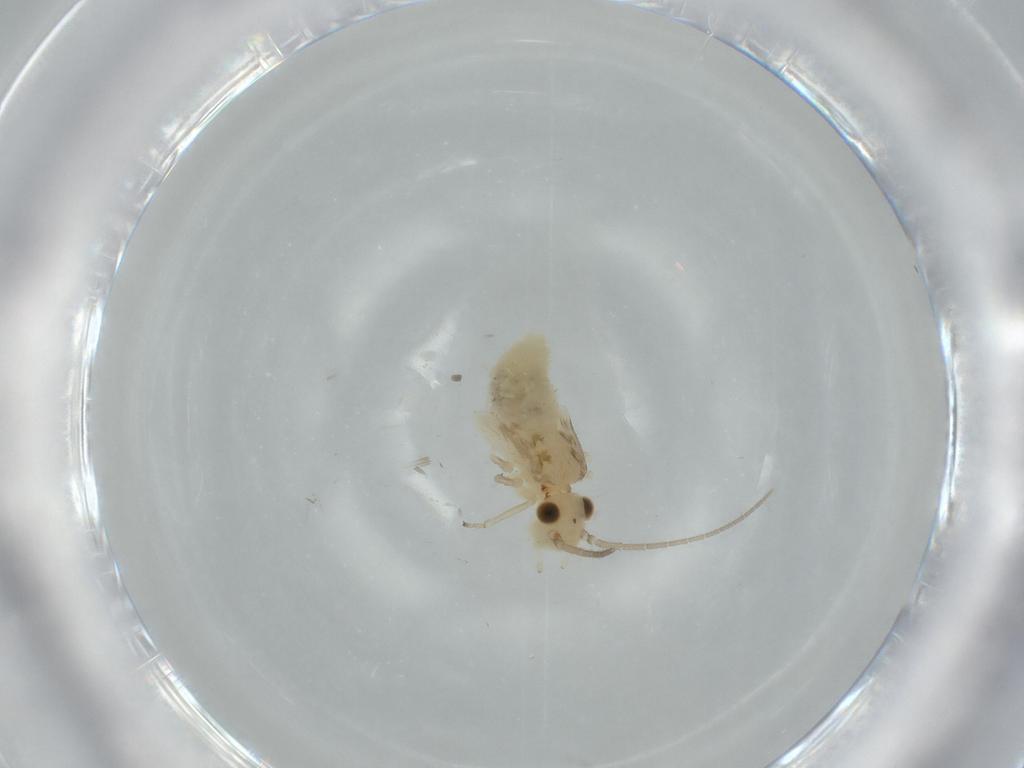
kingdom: Animalia
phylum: Arthropoda
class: Insecta
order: Psocodea
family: Caeciliusidae
